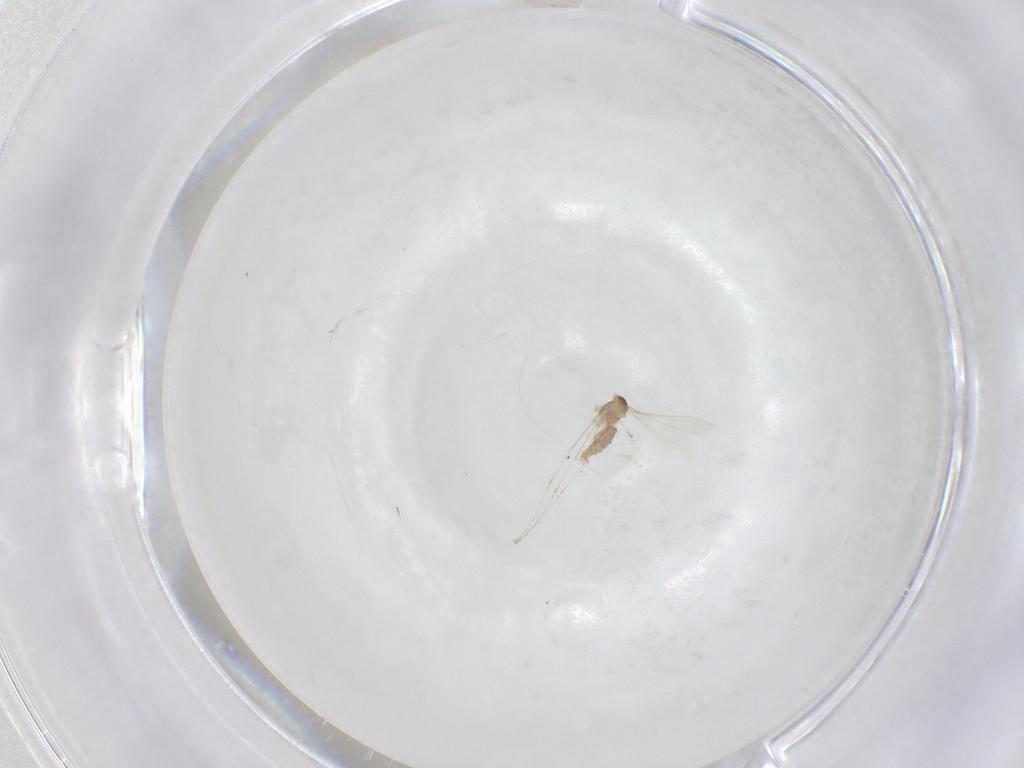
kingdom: Animalia
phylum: Arthropoda
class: Insecta
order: Diptera
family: Cecidomyiidae
